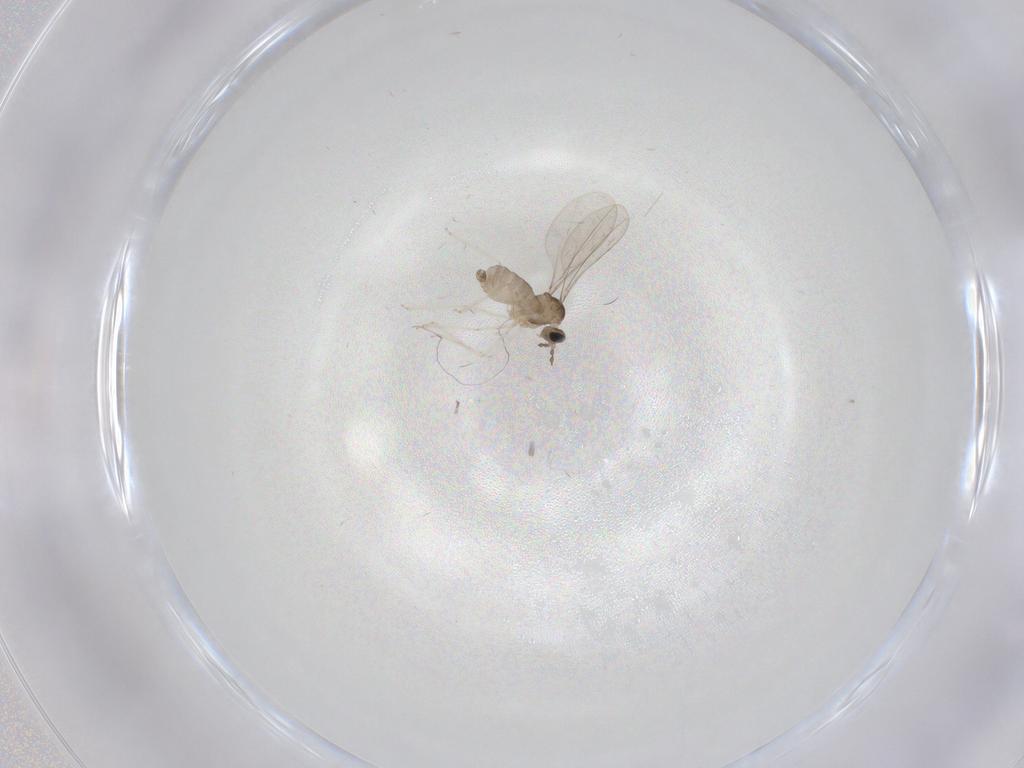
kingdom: Animalia
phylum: Arthropoda
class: Insecta
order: Diptera
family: Cecidomyiidae
